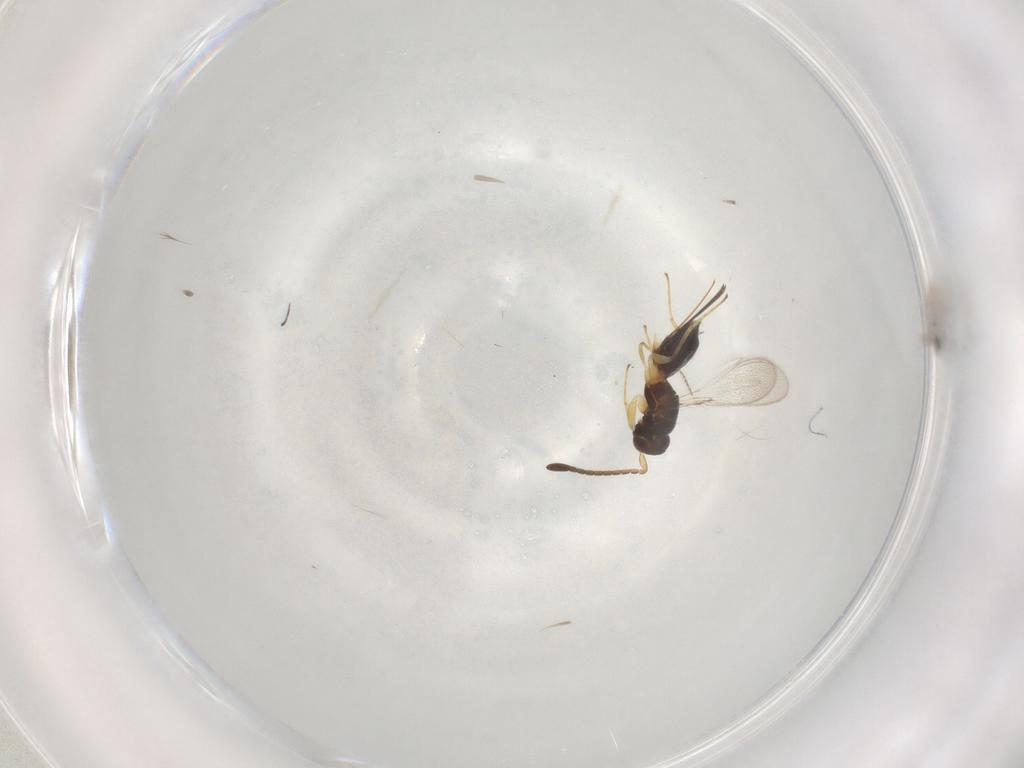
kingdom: Animalia
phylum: Arthropoda
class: Insecta
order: Hymenoptera
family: Mymaridae
